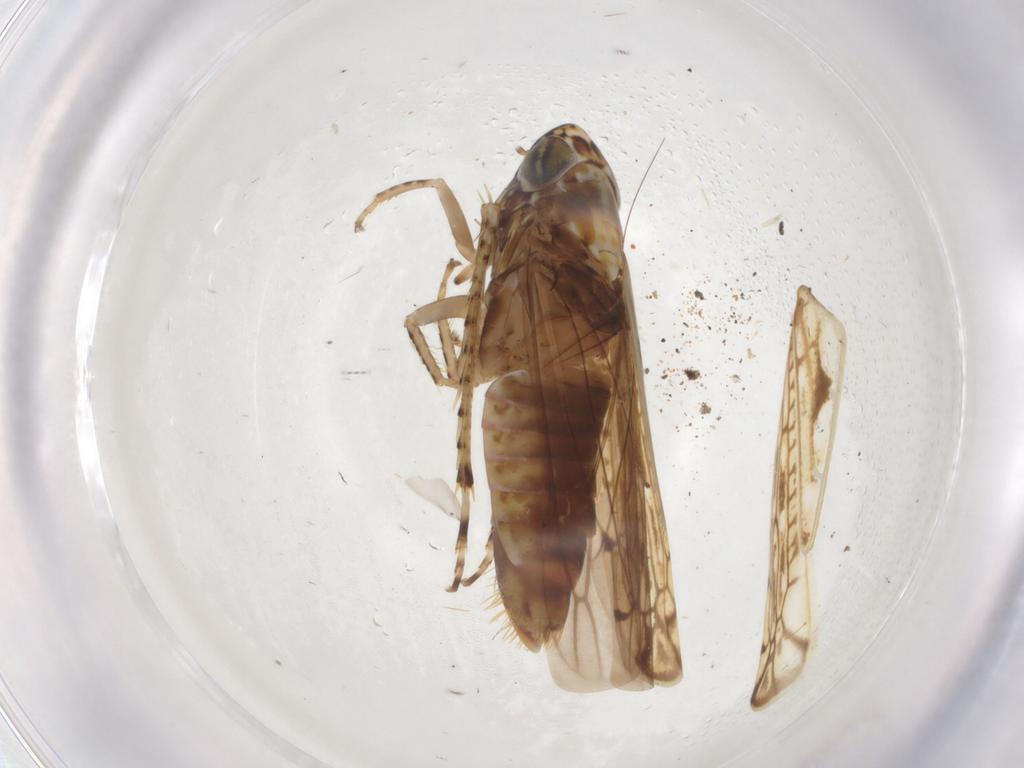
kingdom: Animalia
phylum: Arthropoda
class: Insecta
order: Hemiptera
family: Cicadellidae
